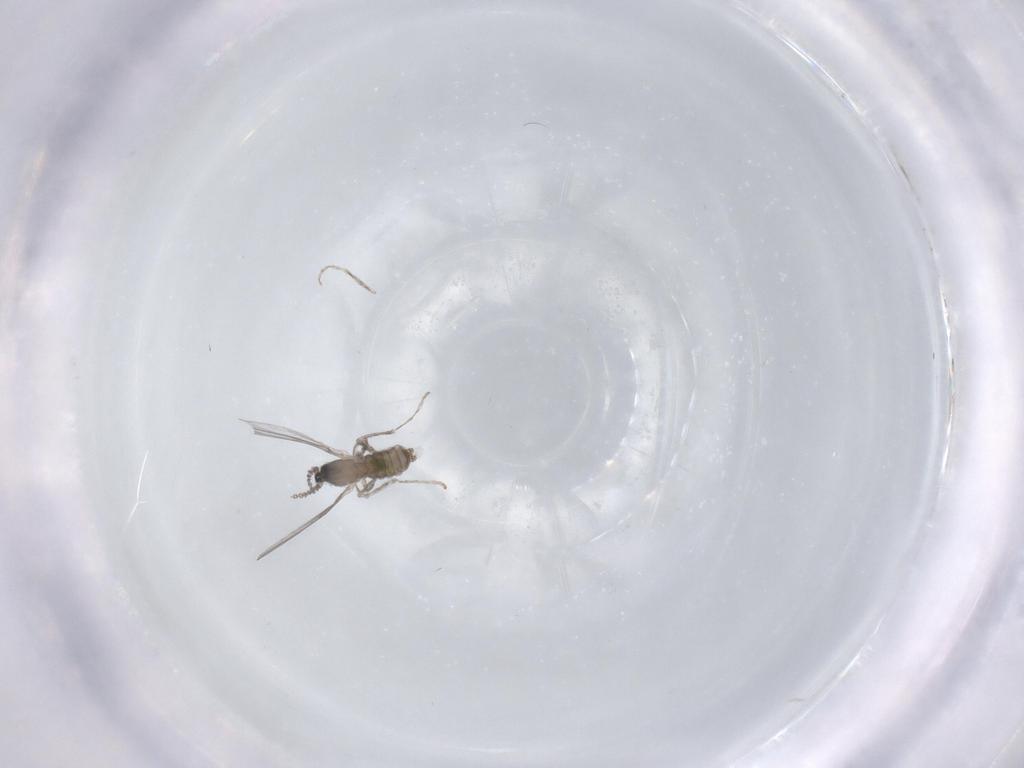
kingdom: Animalia
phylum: Arthropoda
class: Insecta
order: Diptera
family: Cecidomyiidae
